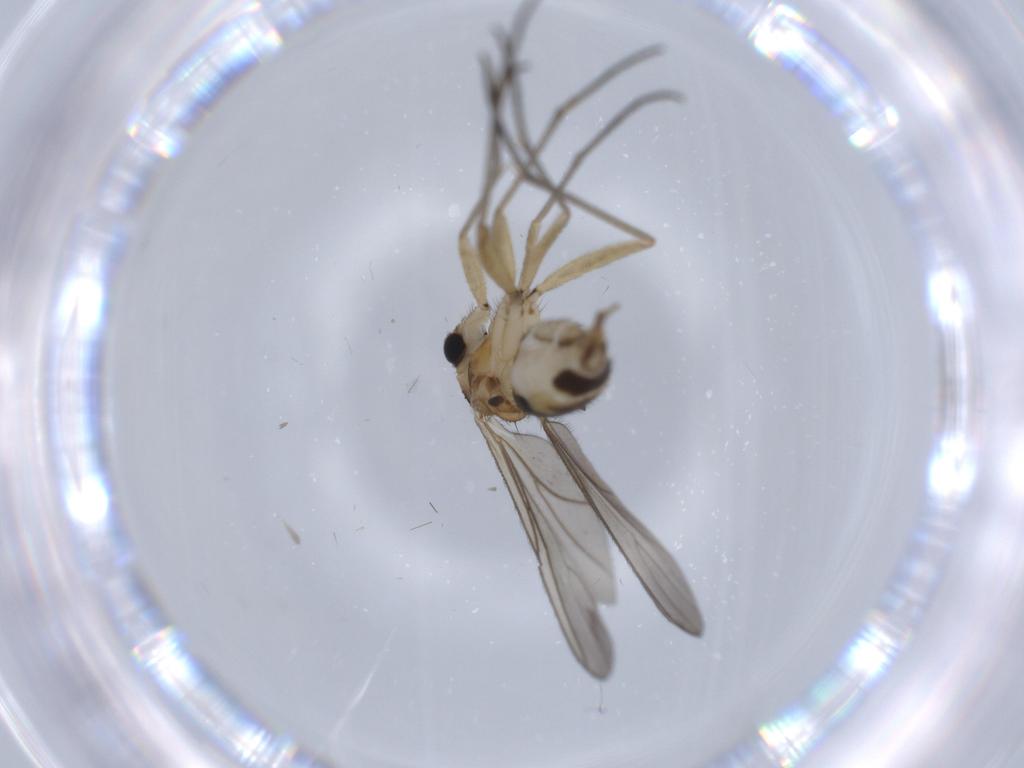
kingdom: Animalia
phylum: Arthropoda
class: Insecta
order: Diptera
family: Sciaridae
